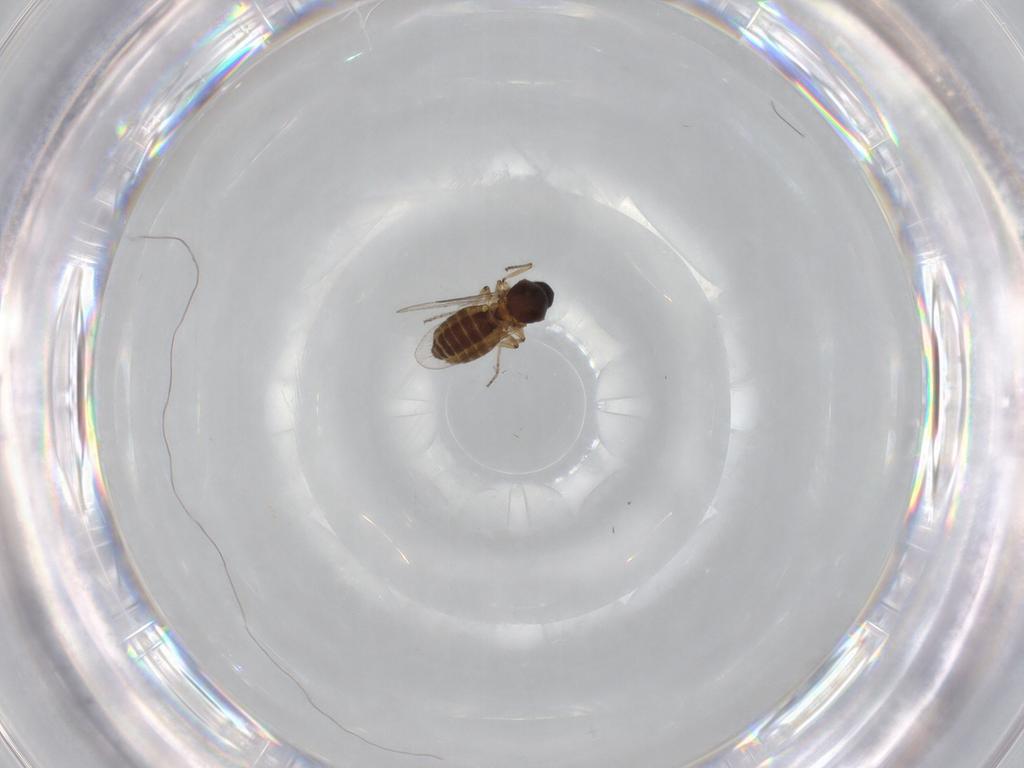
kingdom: Animalia
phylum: Arthropoda
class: Insecta
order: Diptera
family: Ceratopogonidae
